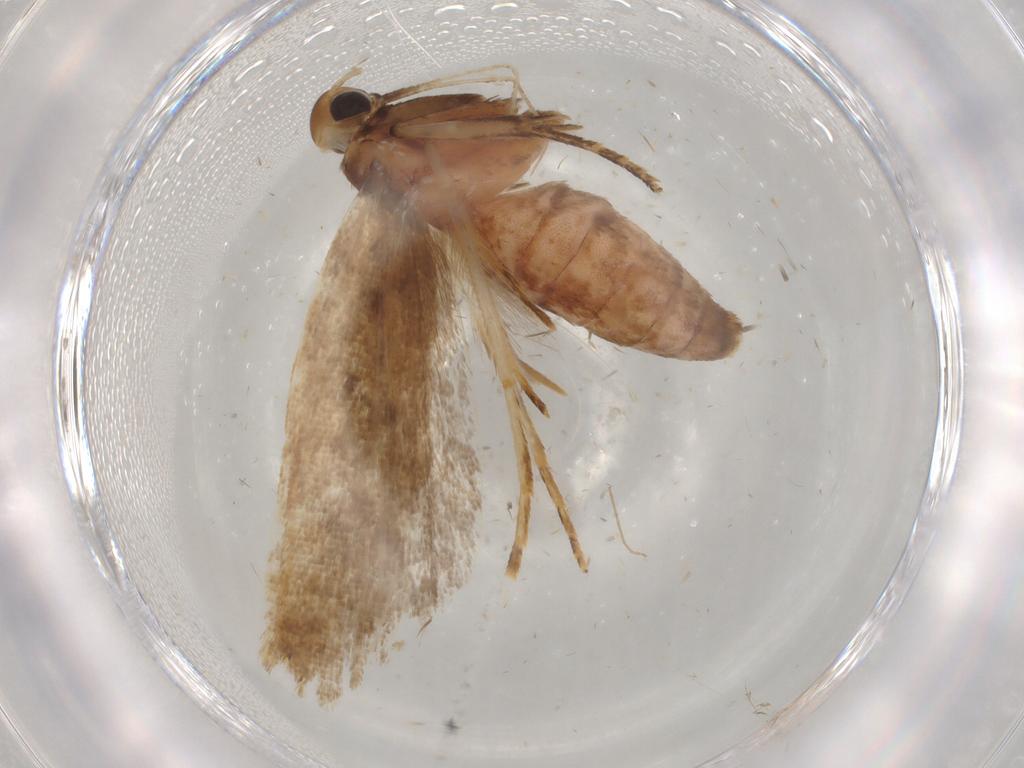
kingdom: Animalia
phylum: Arthropoda
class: Insecta
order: Lepidoptera
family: Gelechiidae
